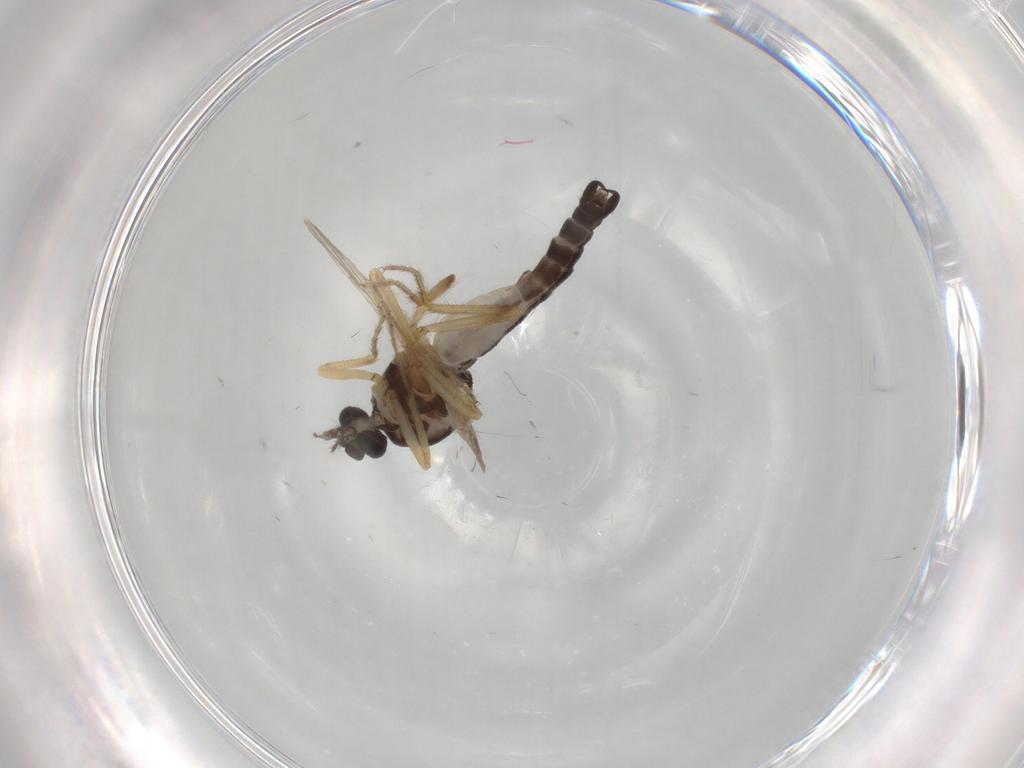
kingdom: Animalia
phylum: Arthropoda
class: Insecta
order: Diptera
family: Ceratopogonidae
